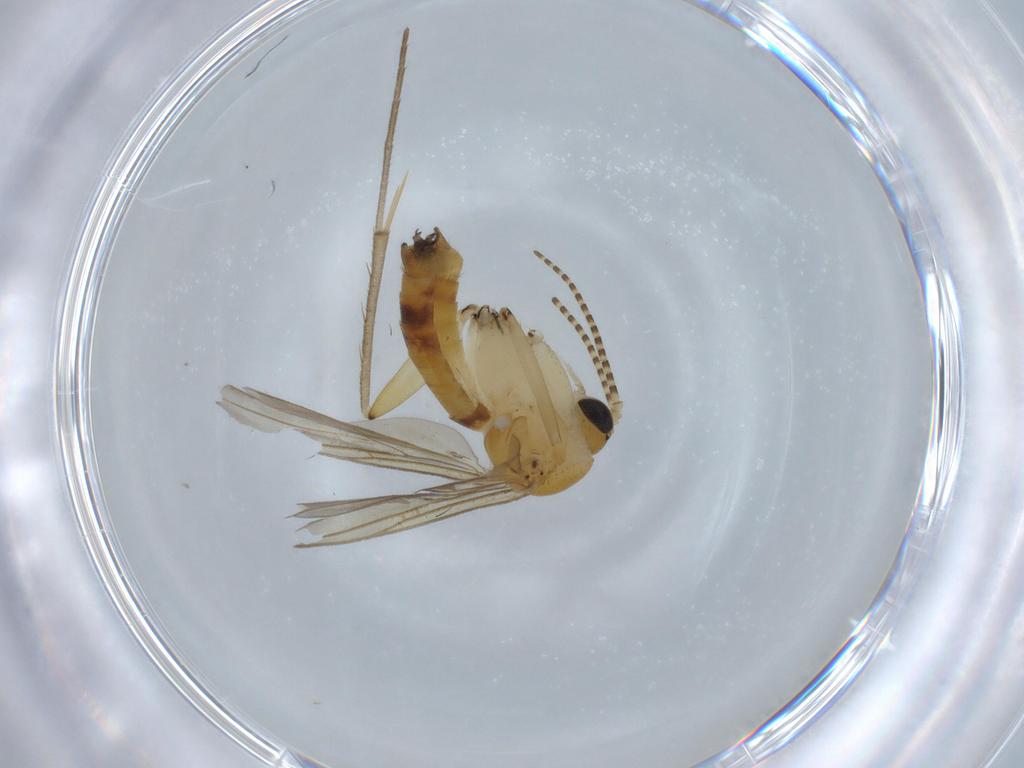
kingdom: Animalia
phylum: Arthropoda
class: Insecta
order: Diptera
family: Mycetophilidae
